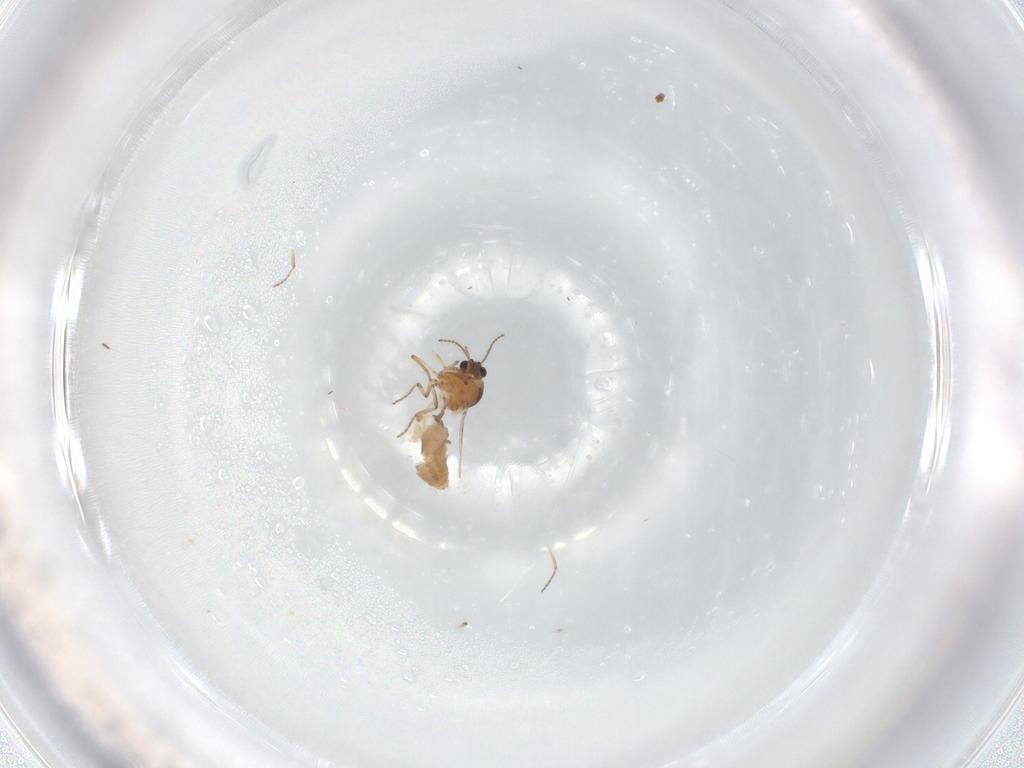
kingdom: Animalia
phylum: Arthropoda
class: Insecta
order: Diptera
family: Ceratopogonidae
